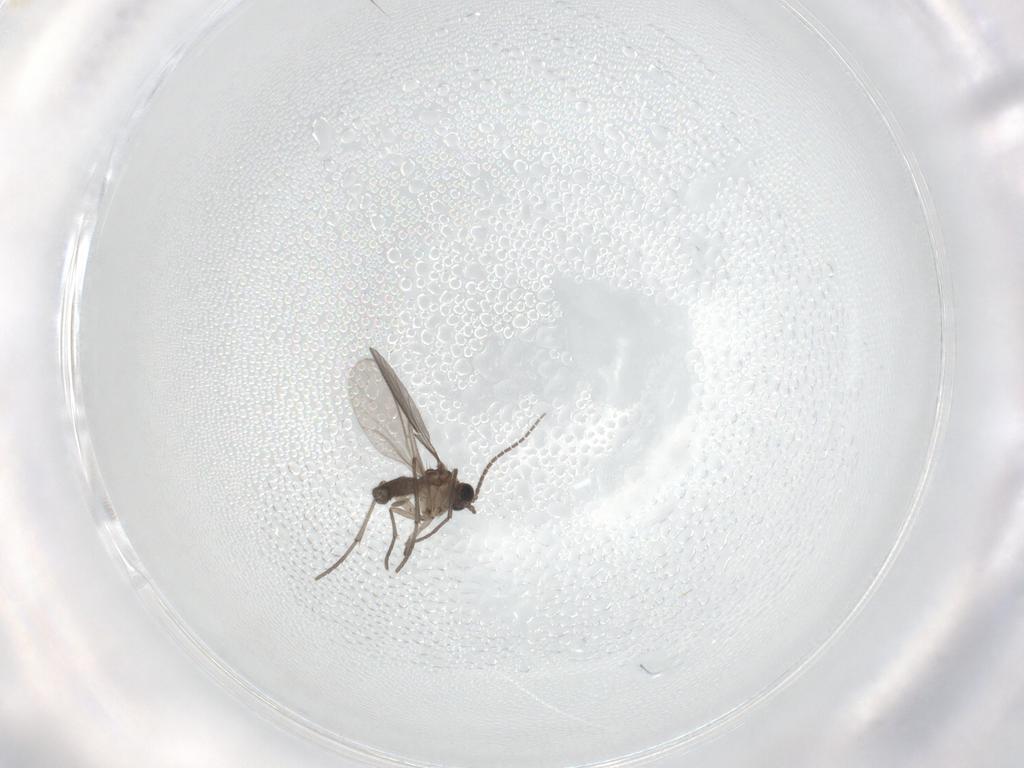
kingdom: Animalia
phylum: Arthropoda
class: Insecta
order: Diptera
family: Sciaridae
